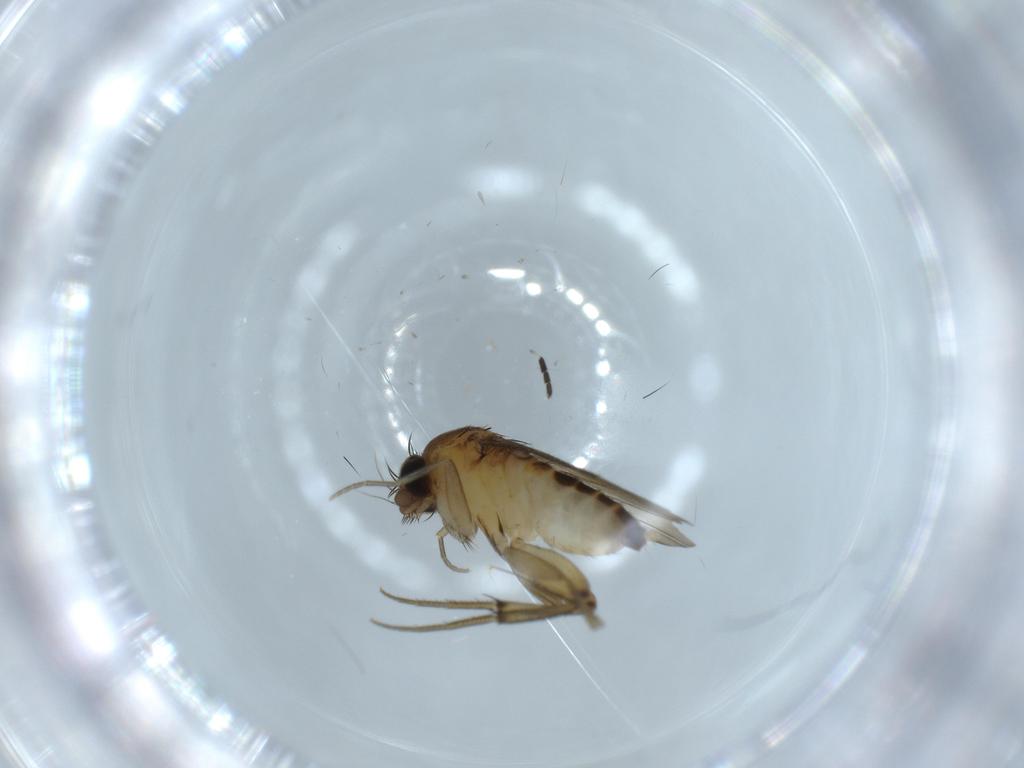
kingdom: Animalia
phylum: Arthropoda
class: Insecta
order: Diptera
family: Phoridae
